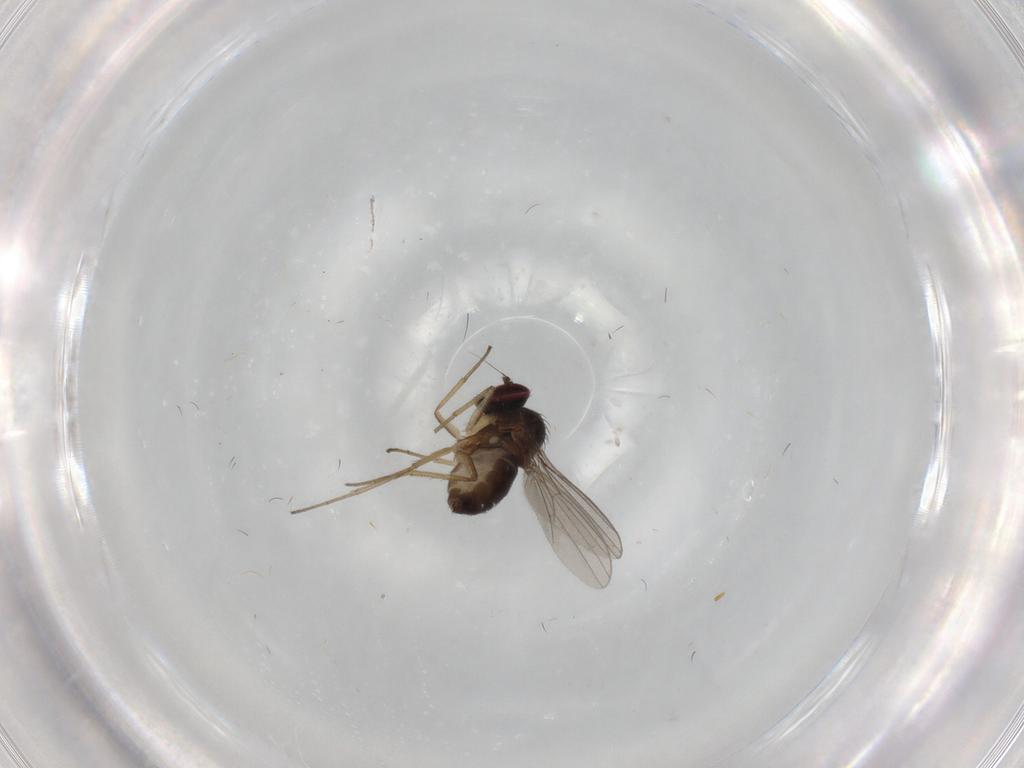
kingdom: Animalia
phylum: Arthropoda
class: Insecta
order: Diptera
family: Dolichopodidae
